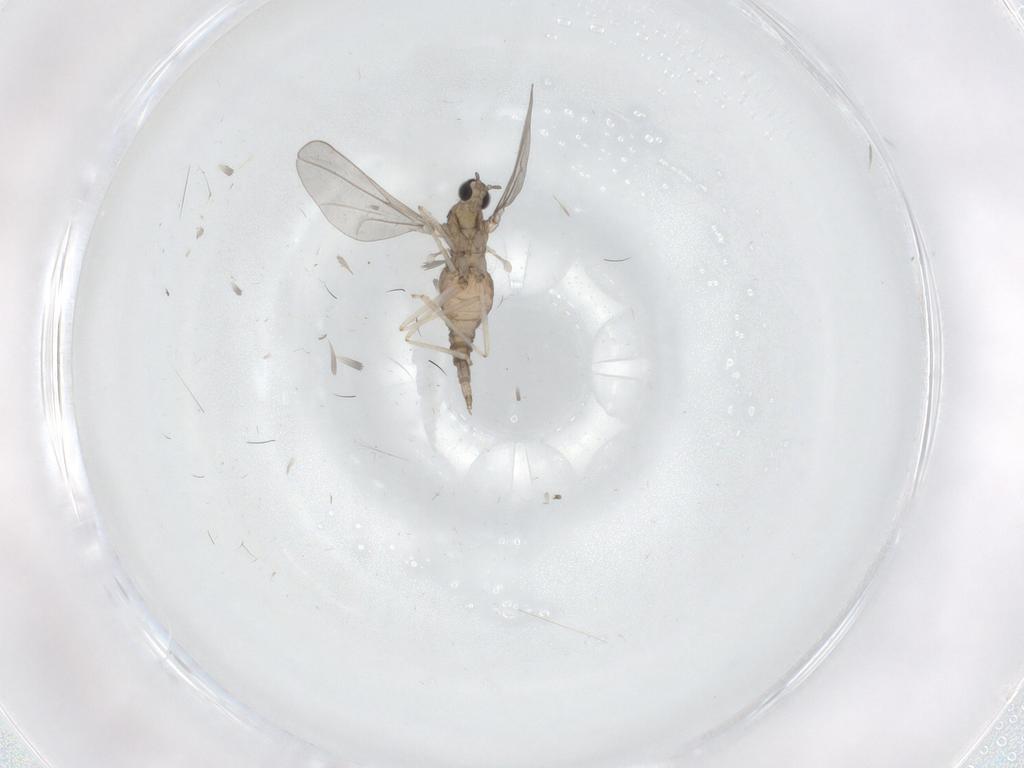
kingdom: Animalia
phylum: Arthropoda
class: Insecta
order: Diptera
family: Cecidomyiidae
